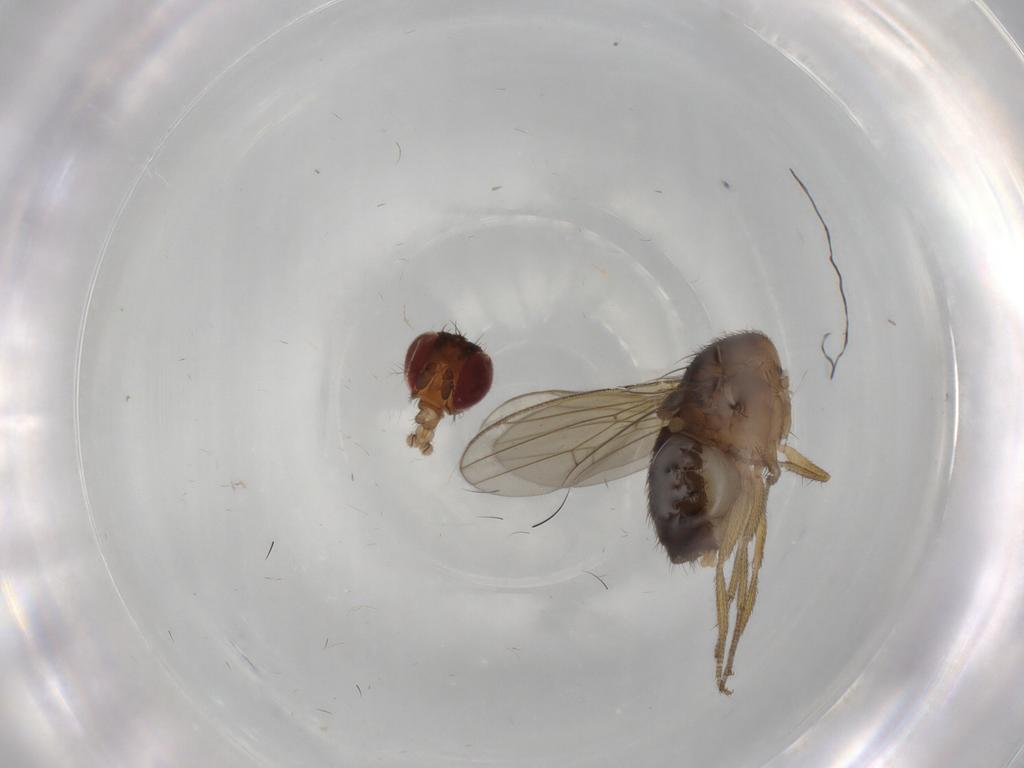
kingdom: Animalia
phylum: Arthropoda
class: Insecta
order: Diptera
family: Drosophilidae
